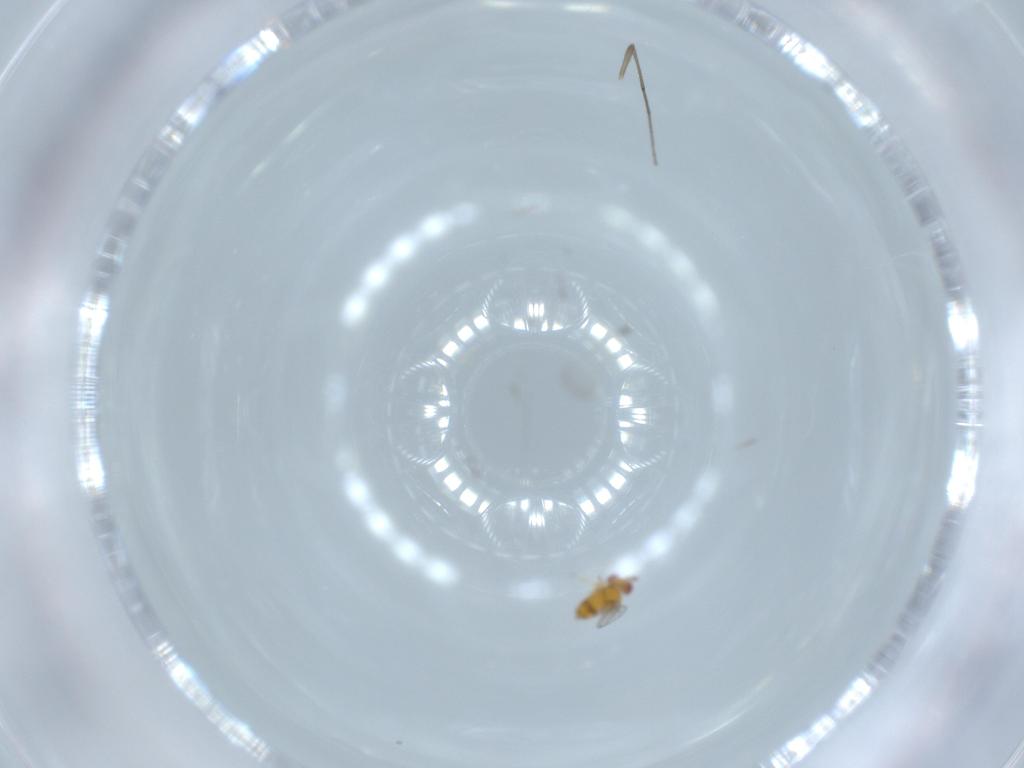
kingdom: Animalia
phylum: Arthropoda
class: Insecta
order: Hymenoptera
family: Trichogrammatidae
